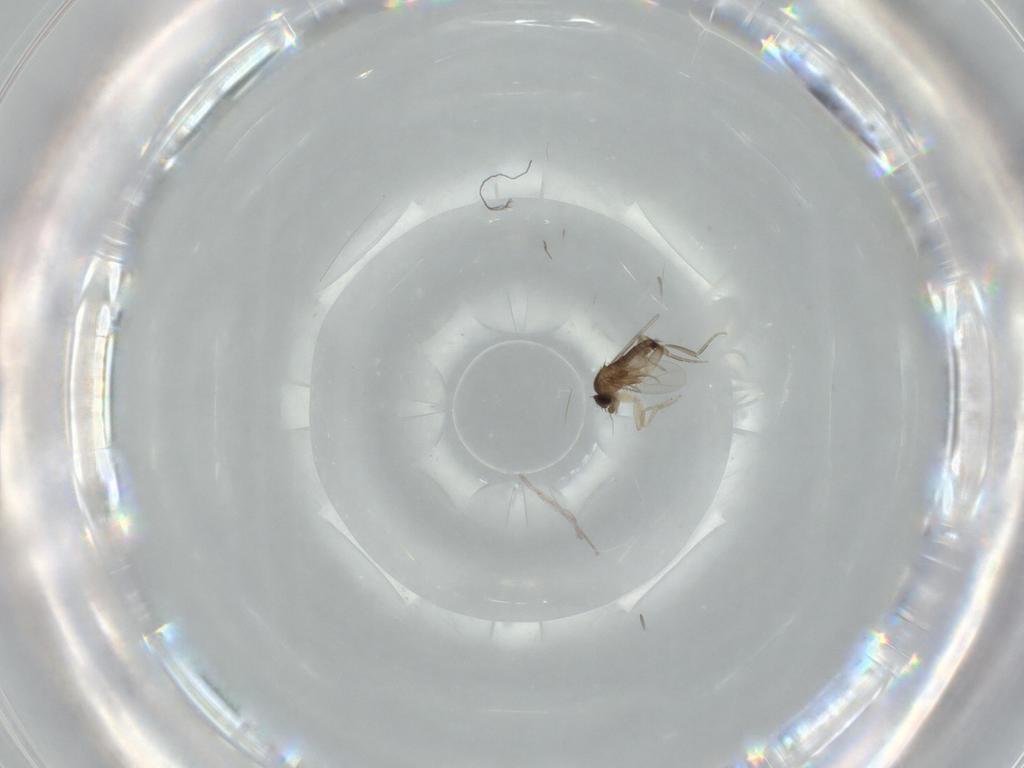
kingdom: Animalia
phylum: Arthropoda
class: Insecta
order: Diptera
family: Phoridae
